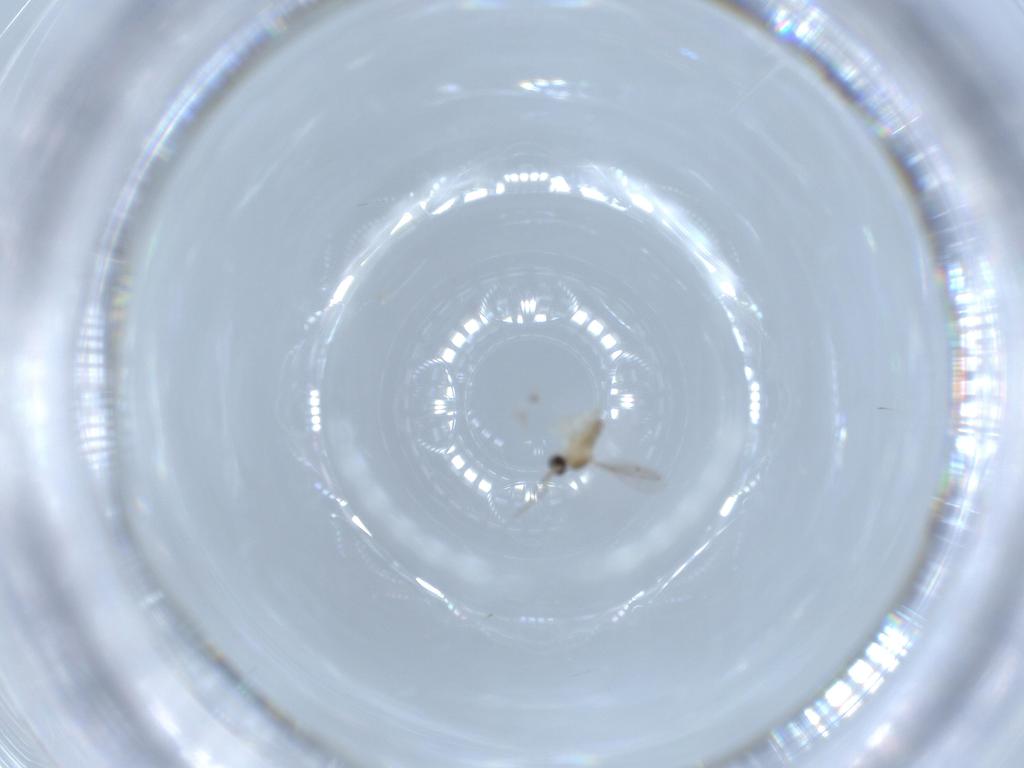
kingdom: Animalia
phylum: Arthropoda
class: Insecta
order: Diptera
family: Cecidomyiidae
